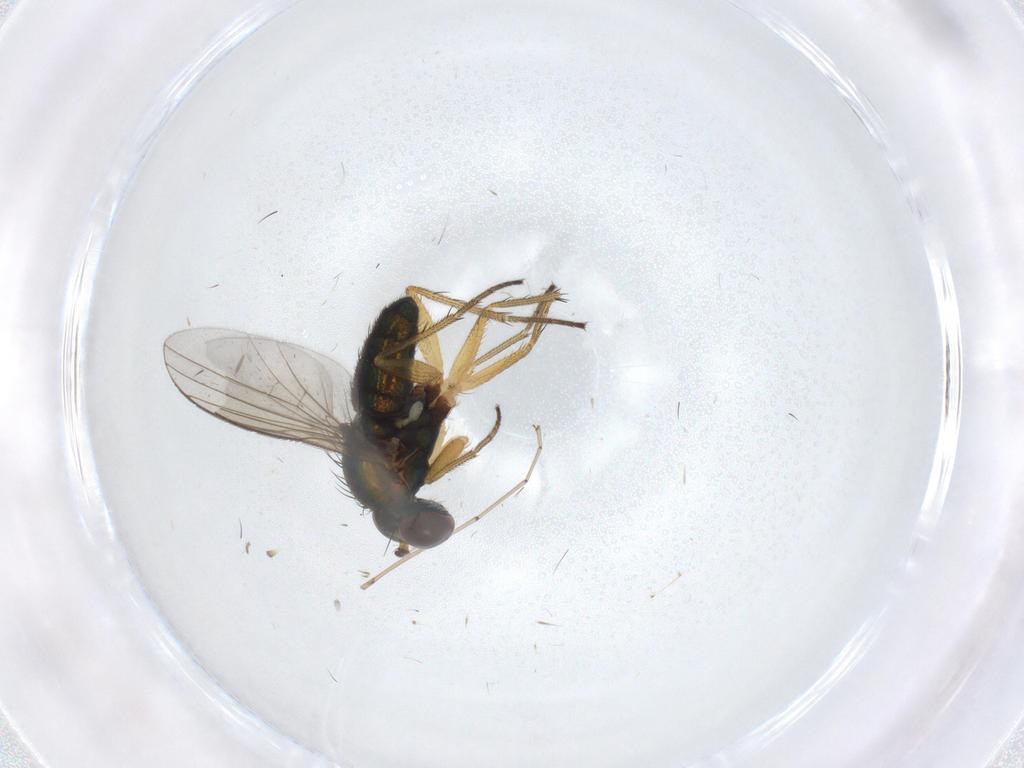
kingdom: Animalia
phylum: Arthropoda
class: Insecta
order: Diptera
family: Dolichopodidae
